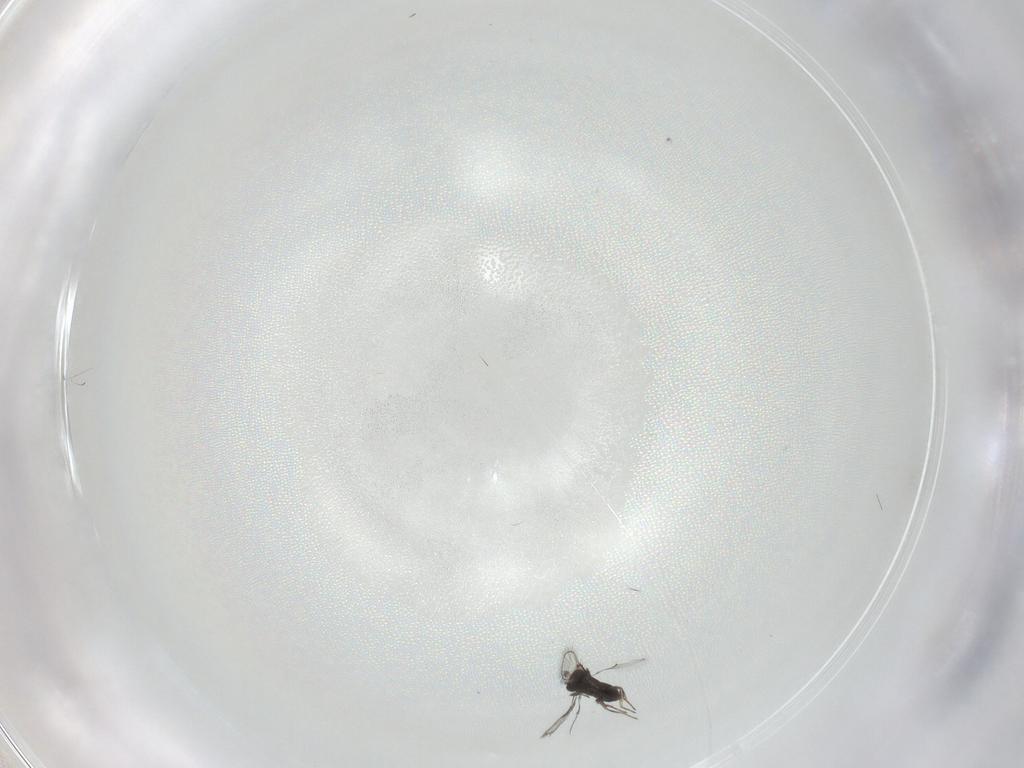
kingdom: Animalia
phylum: Arthropoda
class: Insecta
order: Hymenoptera
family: Trichogrammatidae
